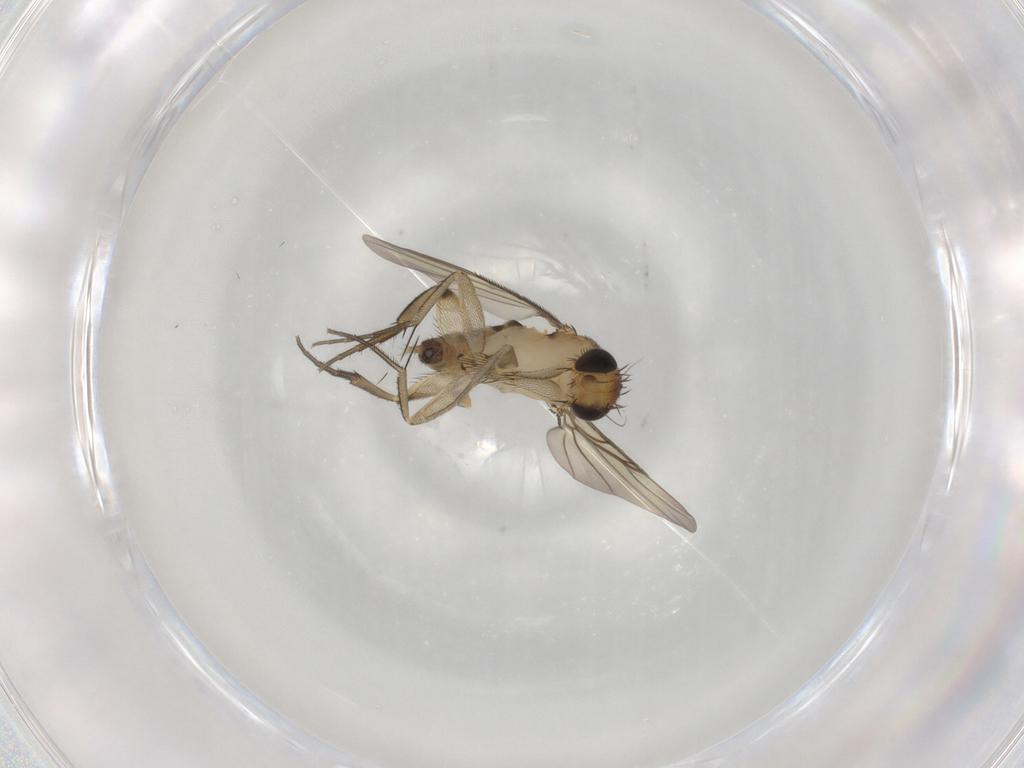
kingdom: Animalia
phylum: Arthropoda
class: Insecta
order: Diptera
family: Phoridae
